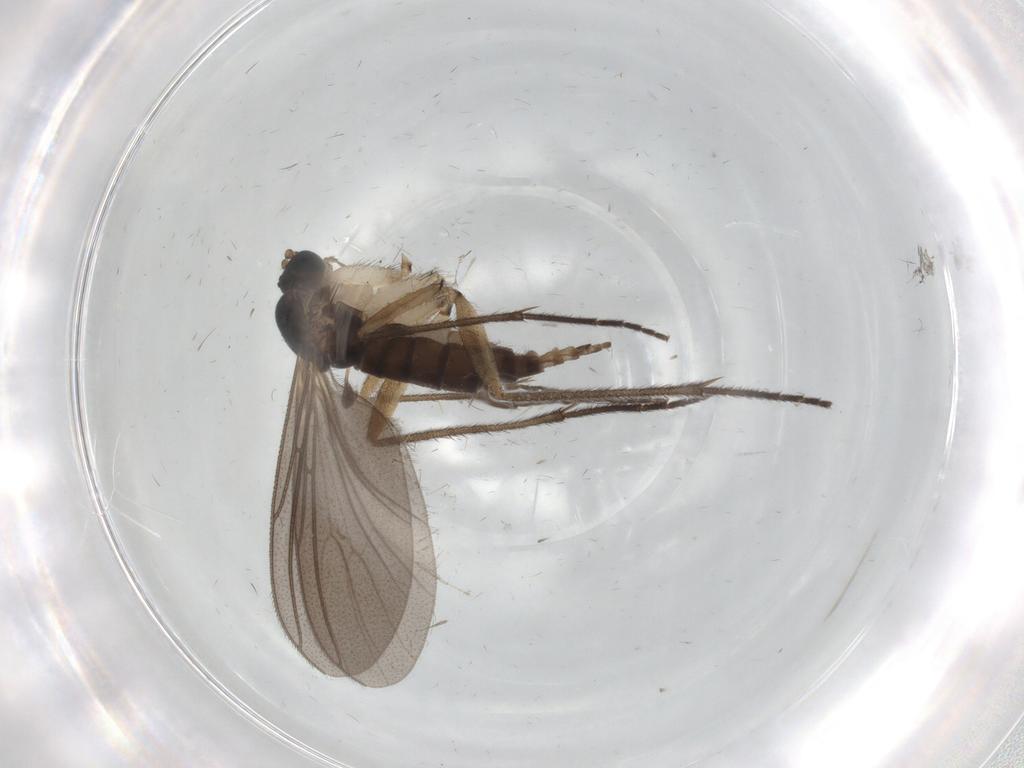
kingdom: Animalia
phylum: Arthropoda
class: Insecta
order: Diptera
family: Sciaridae
